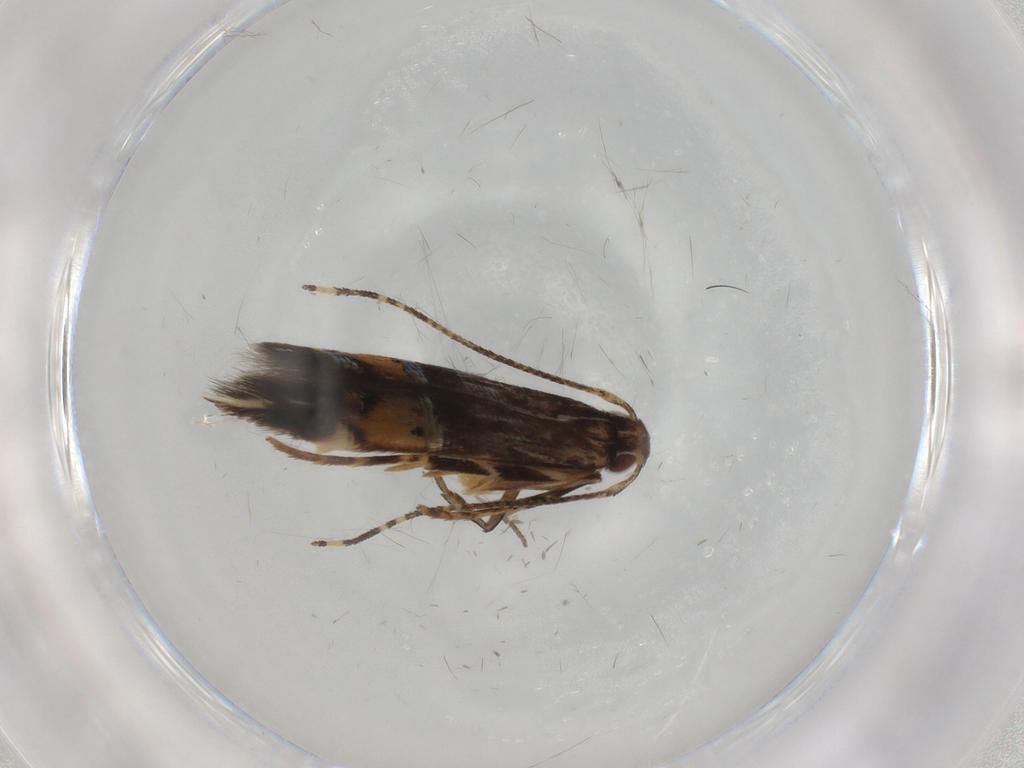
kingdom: Animalia
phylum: Arthropoda
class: Insecta
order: Lepidoptera
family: Cosmopterigidae
